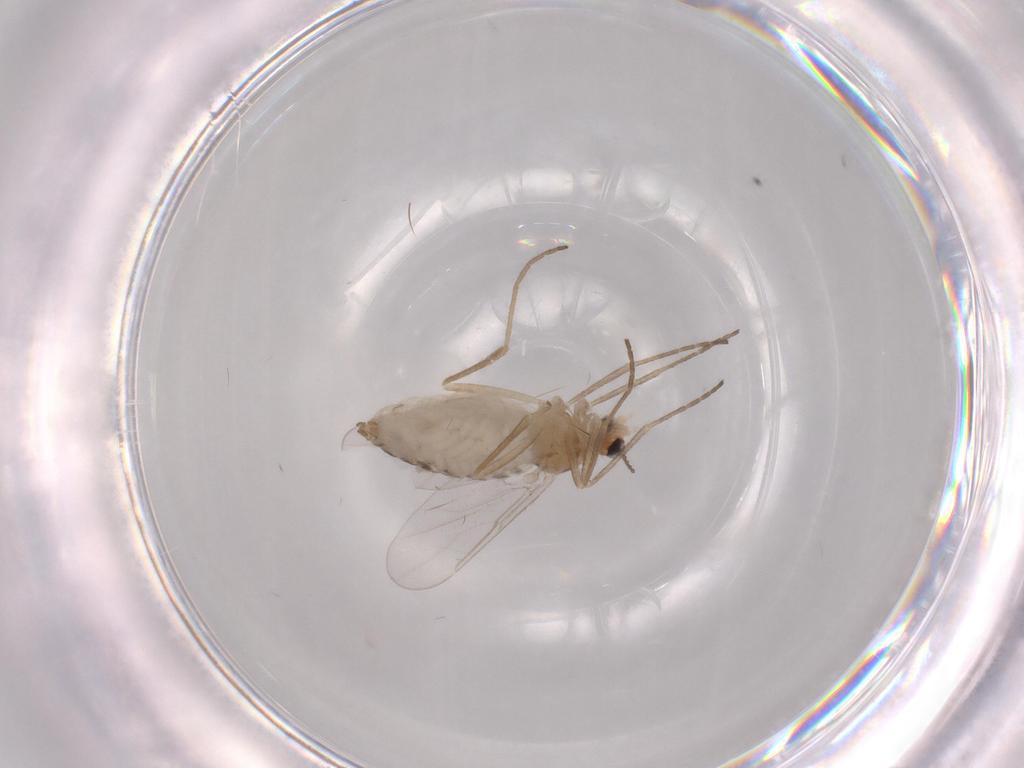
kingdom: Animalia
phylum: Arthropoda
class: Insecta
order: Diptera
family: Cecidomyiidae
